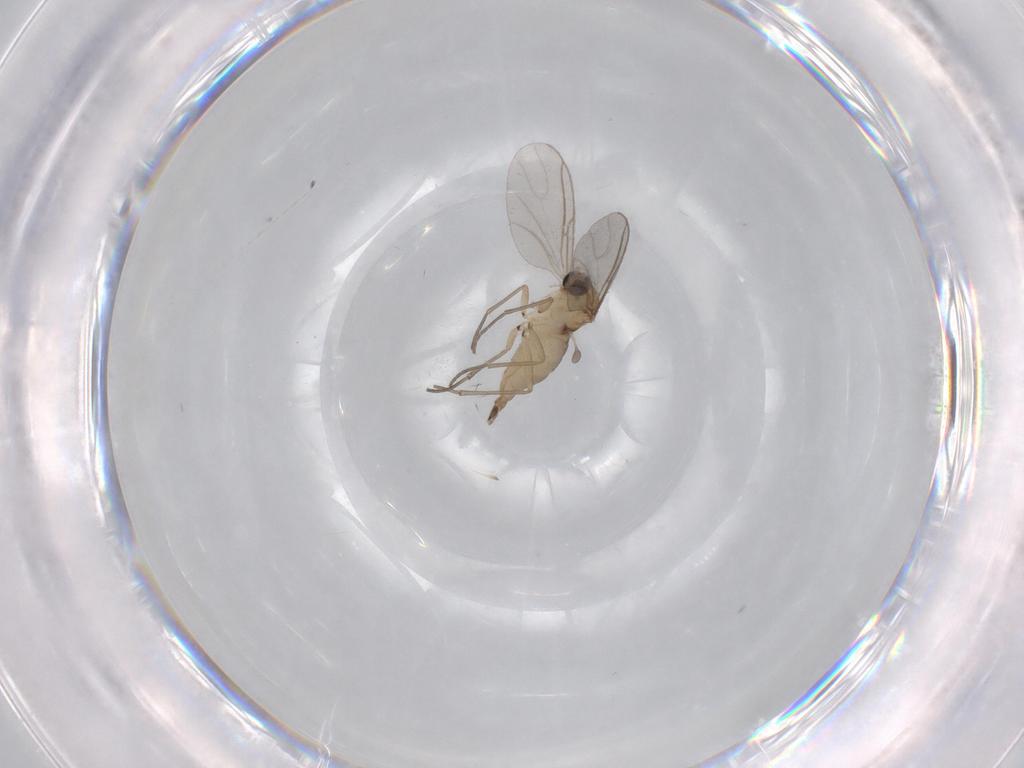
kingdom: Animalia
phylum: Arthropoda
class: Insecta
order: Diptera
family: Sciaridae
